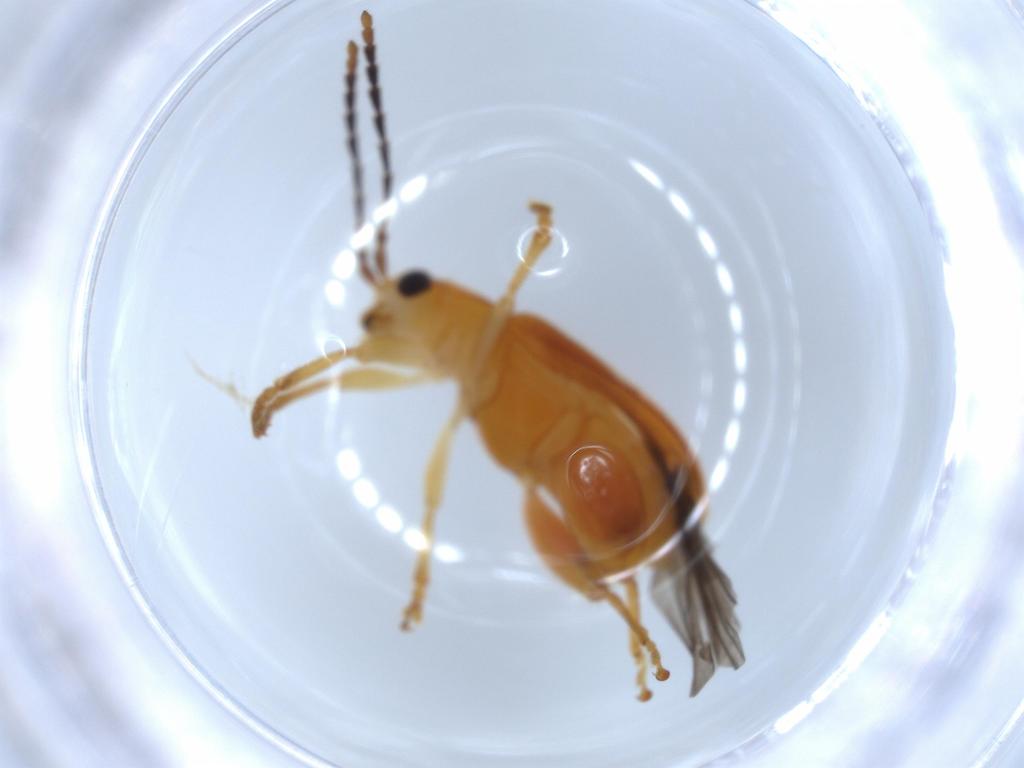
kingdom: Animalia
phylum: Arthropoda
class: Insecta
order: Coleoptera
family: Chrysomelidae
